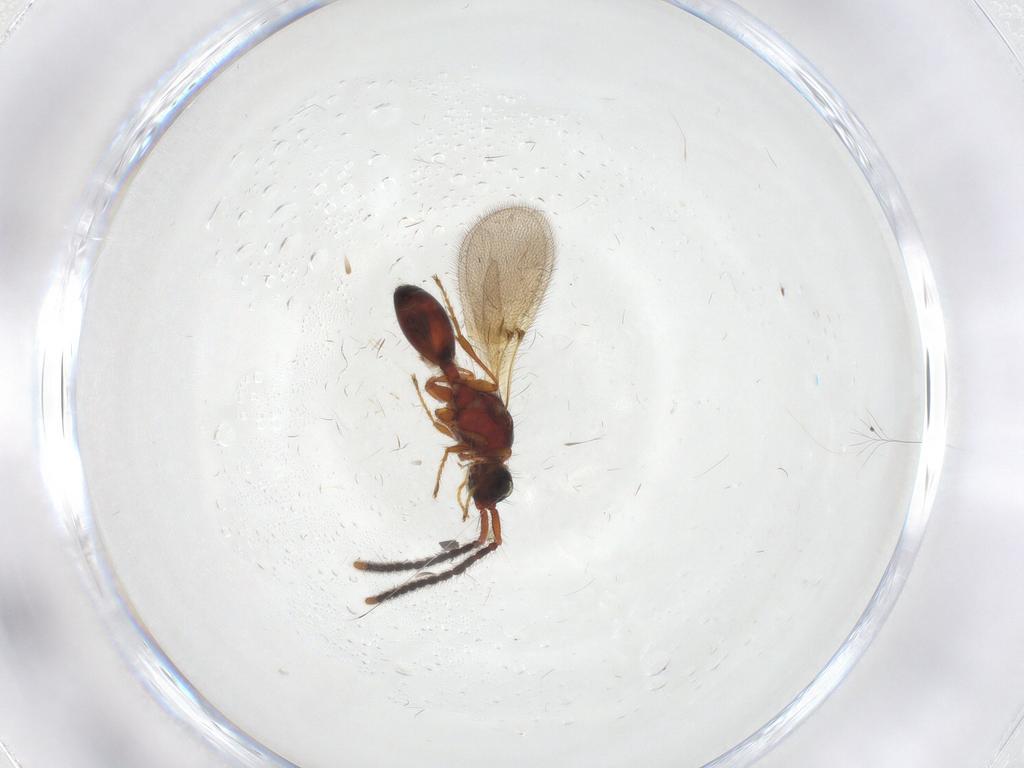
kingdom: Animalia
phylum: Arthropoda
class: Insecta
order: Hymenoptera
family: Diapriidae
